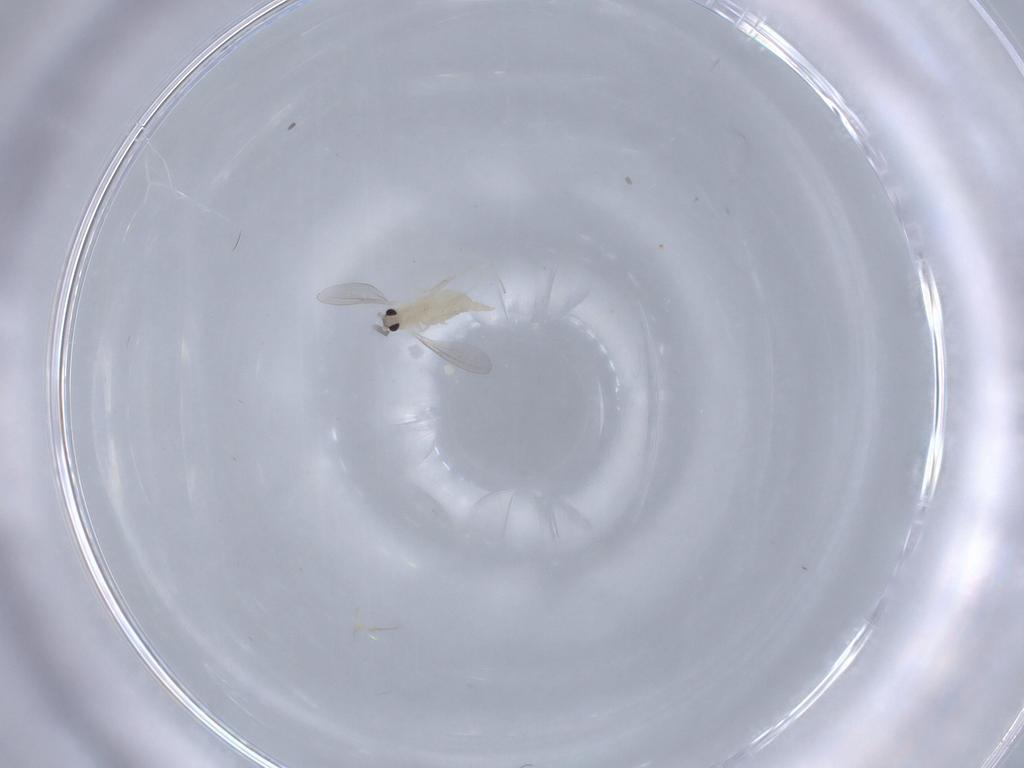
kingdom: Animalia
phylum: Arthropoda
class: Insecta
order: Diptera
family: Cecidomyiidae
